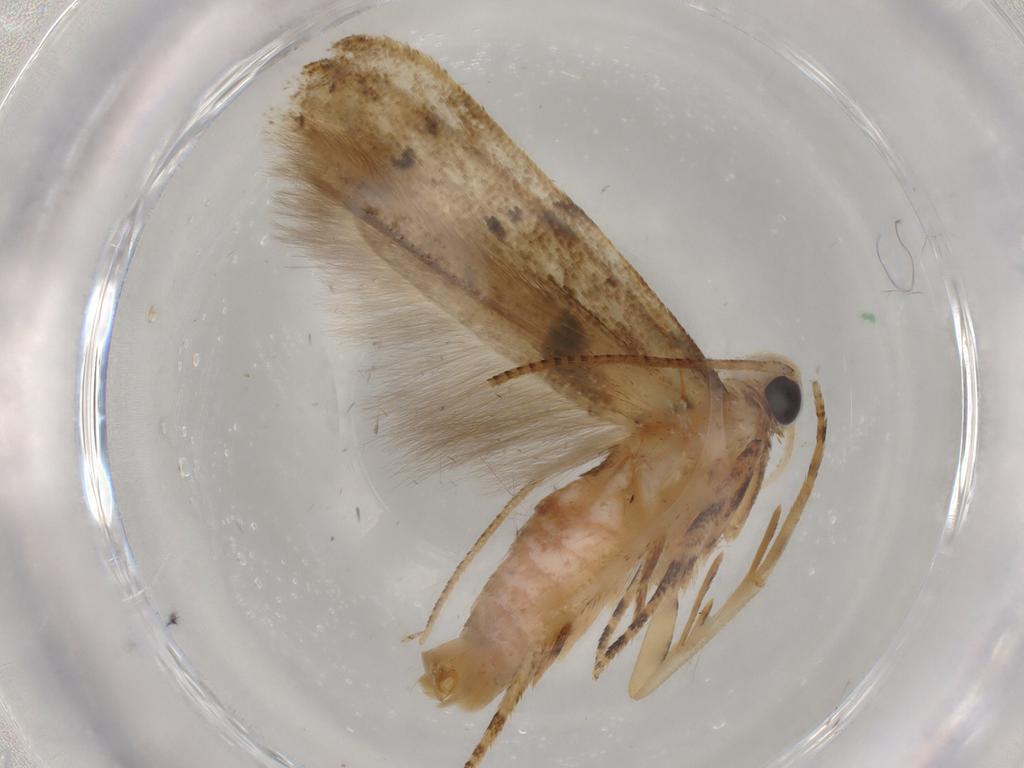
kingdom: Animalia
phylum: Arthropoda
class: Insecta
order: Lepidoptera
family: Gelechiidae
